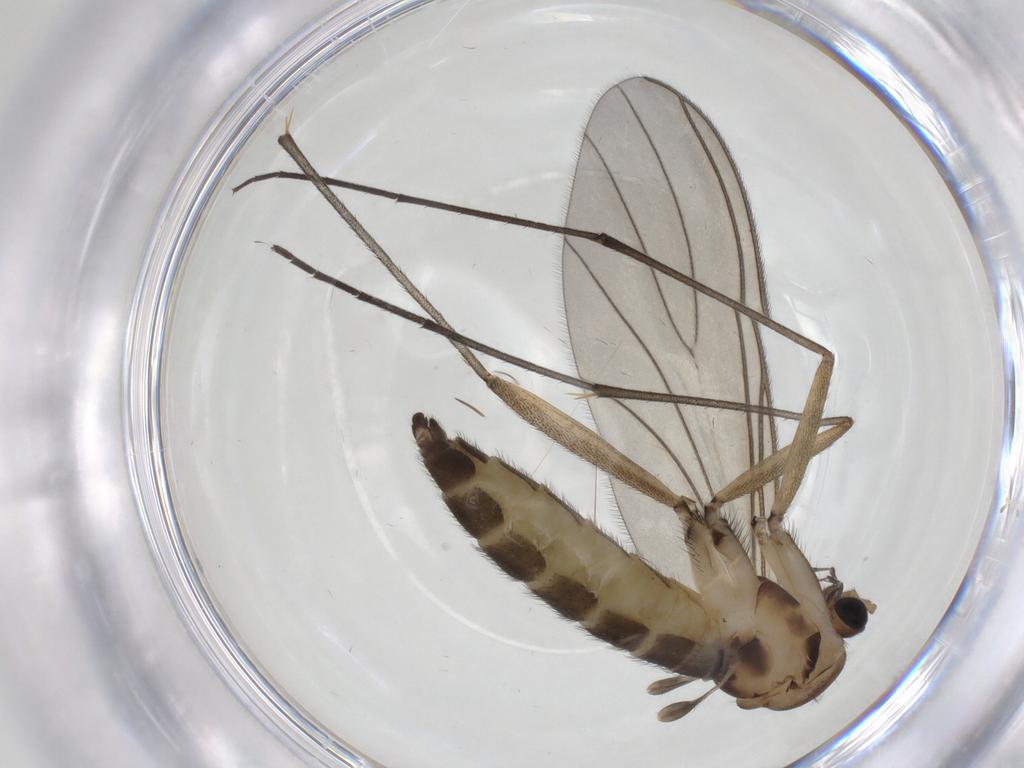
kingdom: Animalia
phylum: Arthropoda
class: Insecta
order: Diptera
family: Sciaridae
